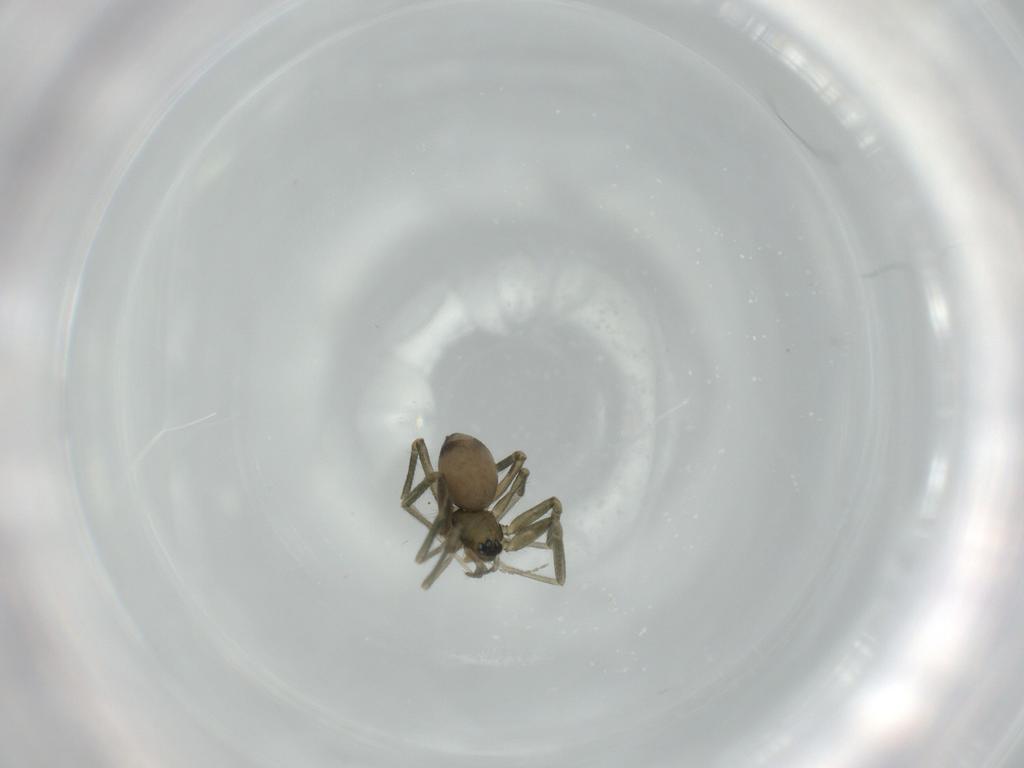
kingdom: Animalia
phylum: Arthropoda
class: Arachnida
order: Araneae
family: Linyphiidae
